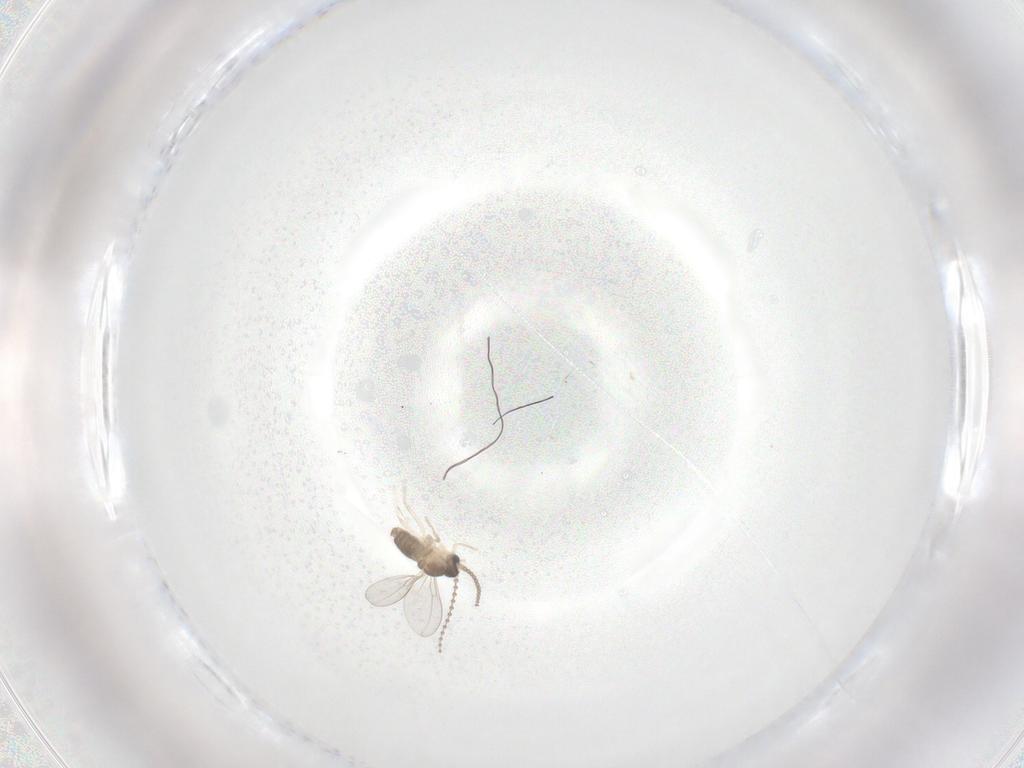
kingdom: Animalia
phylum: Arthropoda
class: Insecta
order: Diptera
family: Cecidomyiidae
